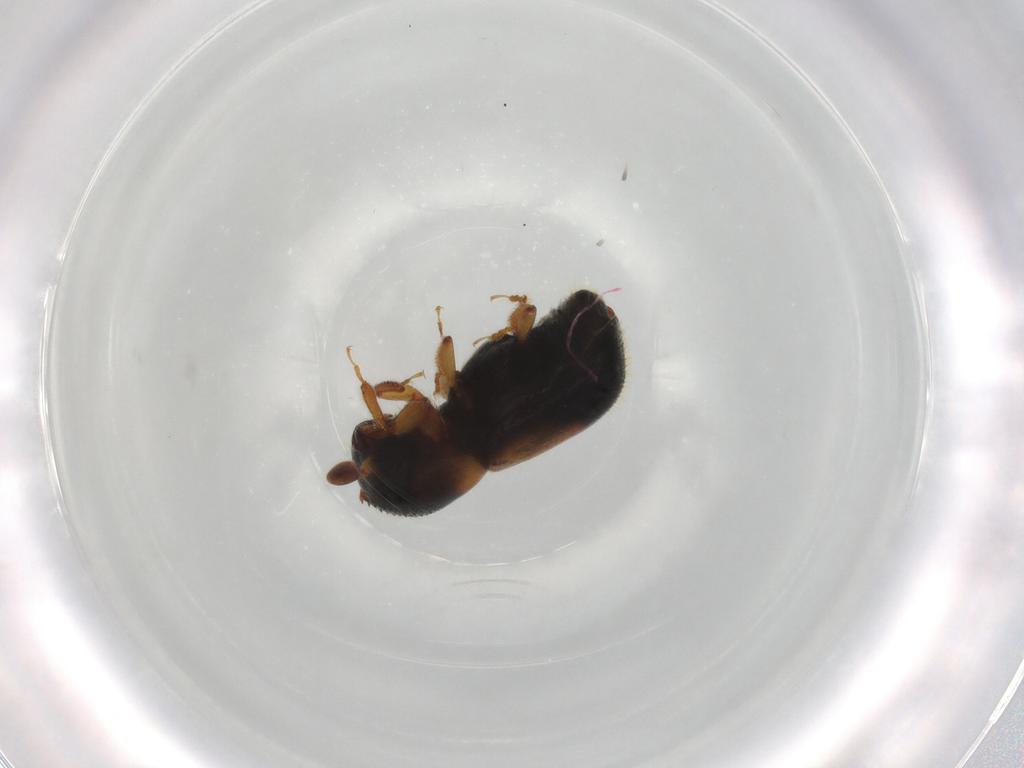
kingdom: Animalia
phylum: Arthropoda
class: Insecta
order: Coleoptera
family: Curculionidae
